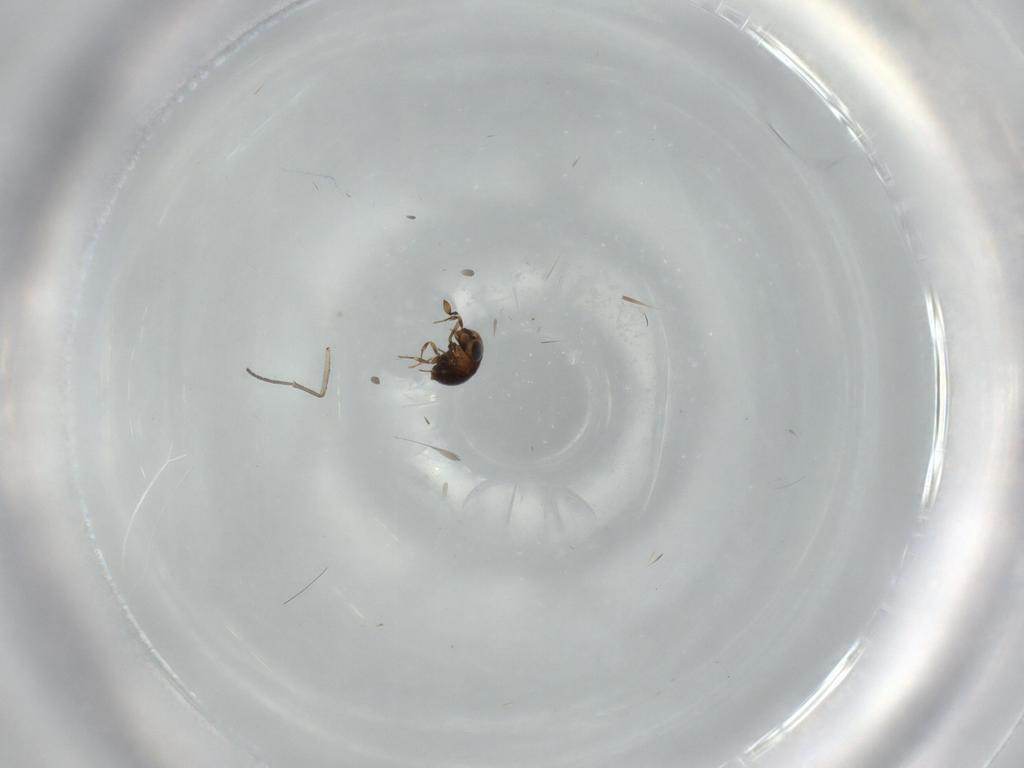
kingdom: Animalia
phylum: Arthropoda
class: Insecta
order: Hymenoptera
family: Scelionidae
